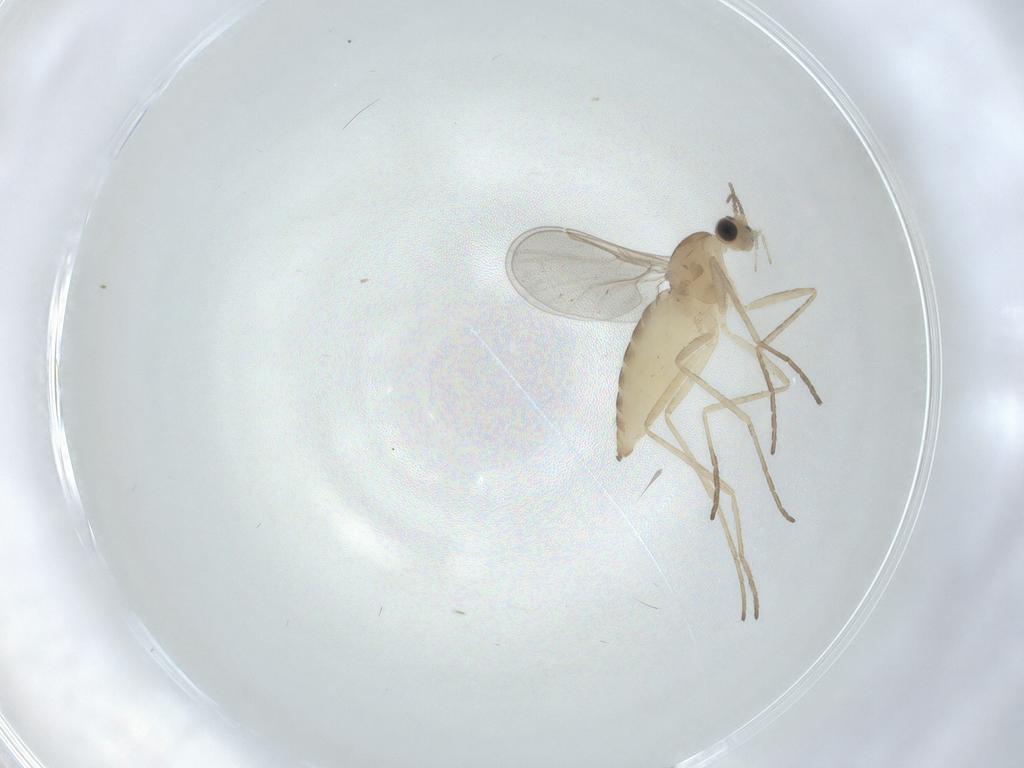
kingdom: Animalia
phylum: Arthropoda
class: Insecta
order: Diptera
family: Cecidomyiidae
